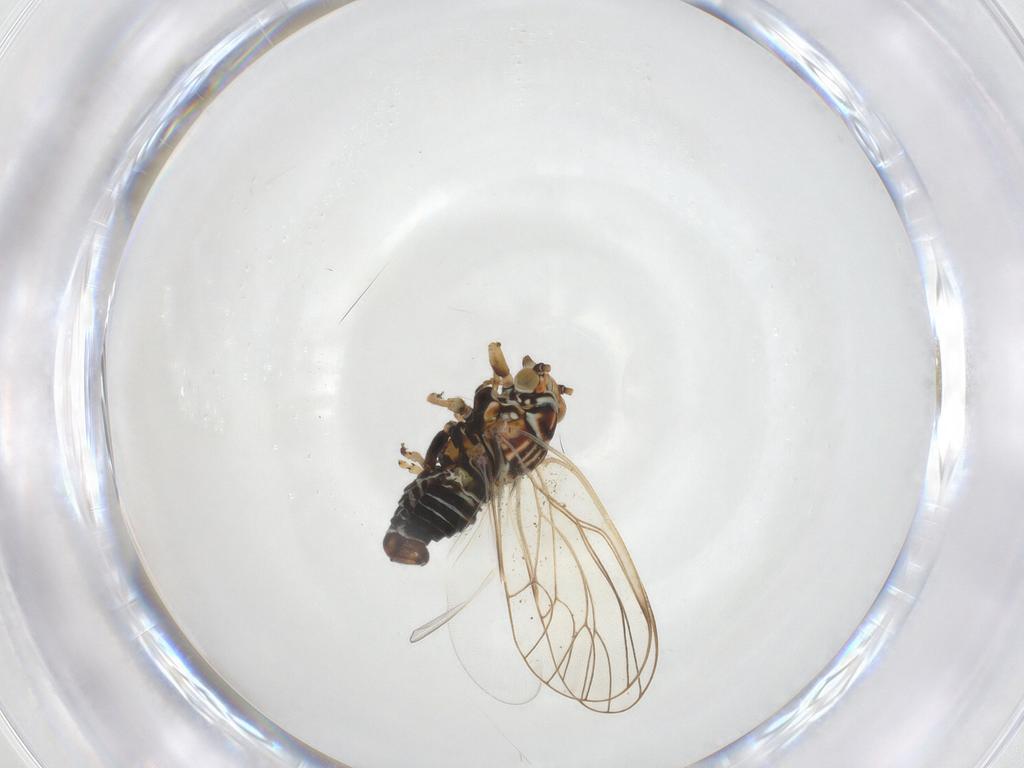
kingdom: Animalia
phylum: Arthropoda
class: Insecta
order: Hemiptera
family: Psyllidae
